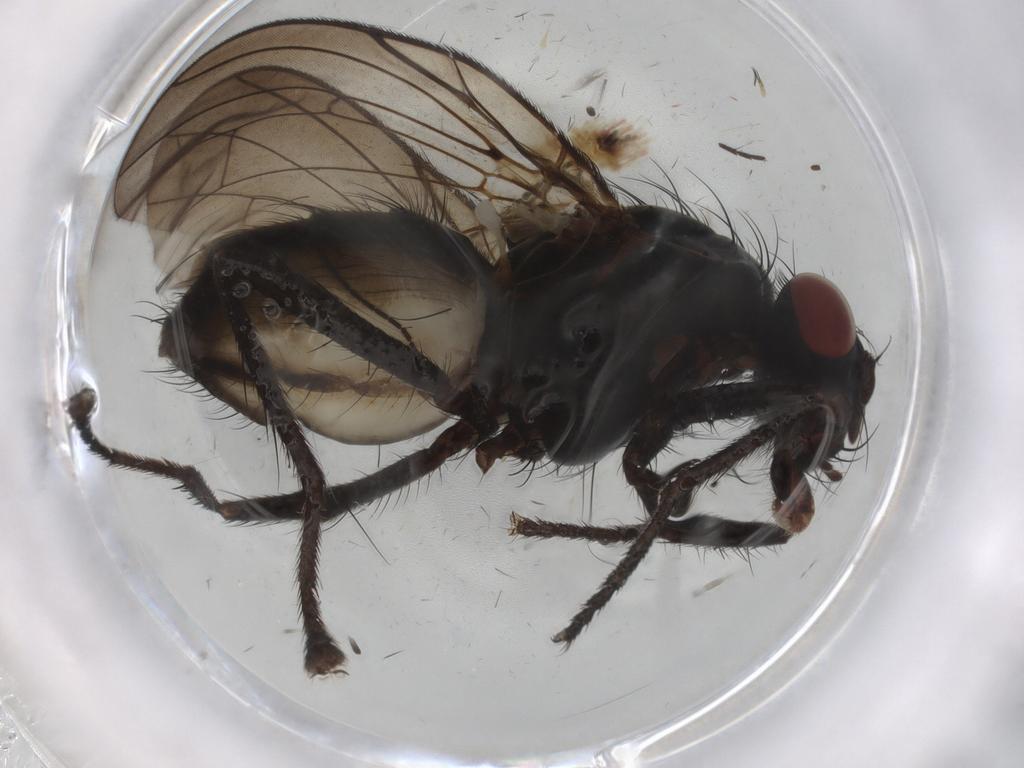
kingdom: Animalia
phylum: Arthropoda
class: Insecta
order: Diptera
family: Anthomyiidae
